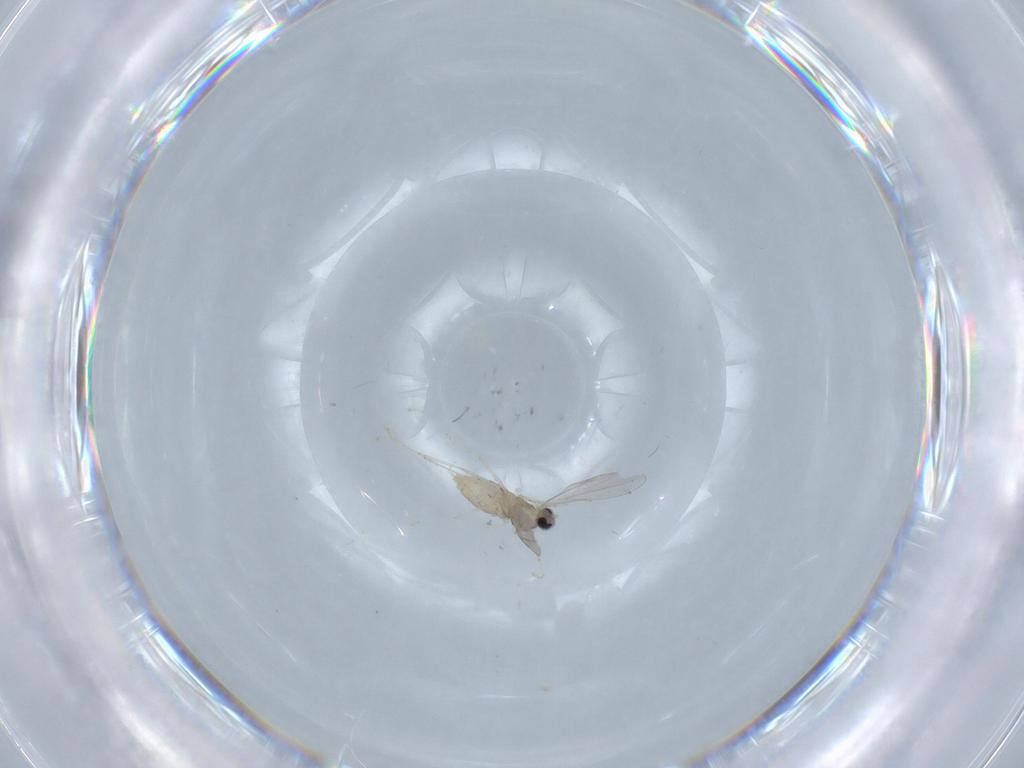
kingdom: Animalia
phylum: Arthropoda
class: Insecta
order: Diptera
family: Cecidomyiidae
